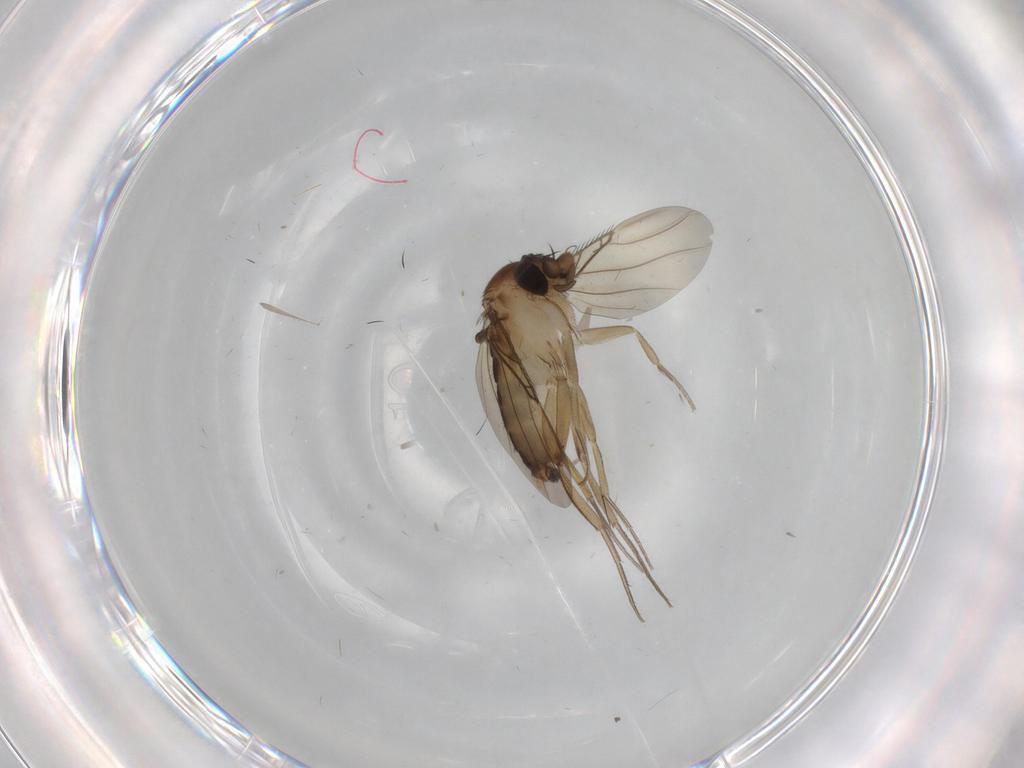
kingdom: Animalia
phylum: Arthropoda
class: Insecta
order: Diptera
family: Phoridae
